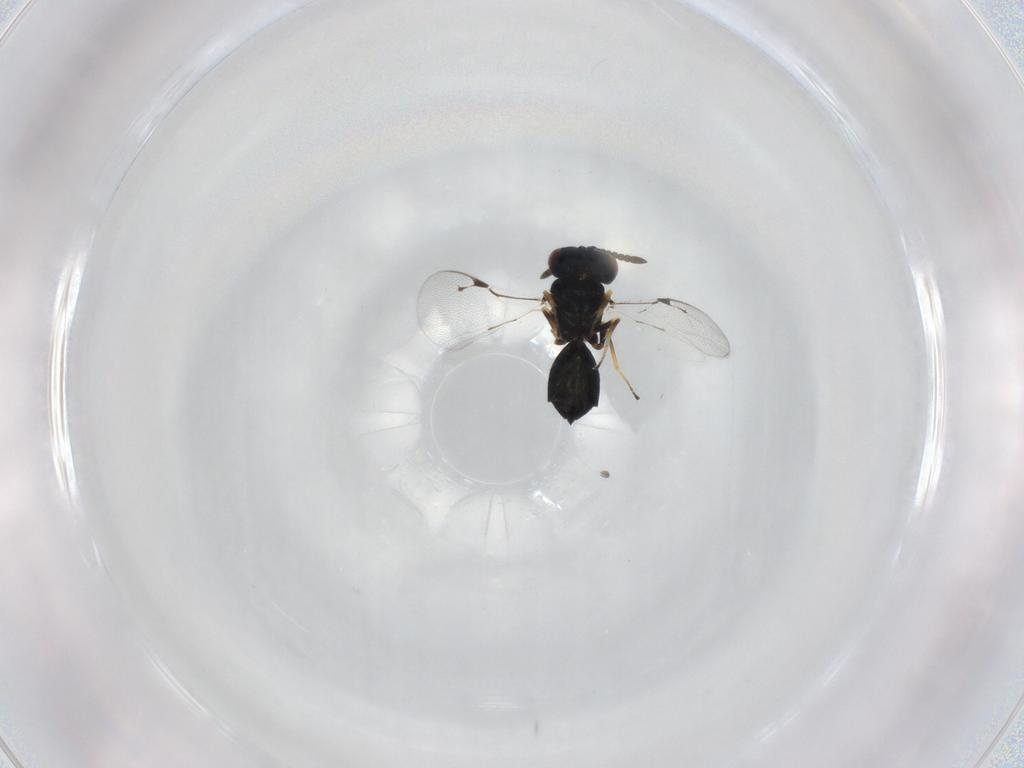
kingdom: Animalia
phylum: Arthropoda
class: Insecta
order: Hymenoptera
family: Pteromalidae
